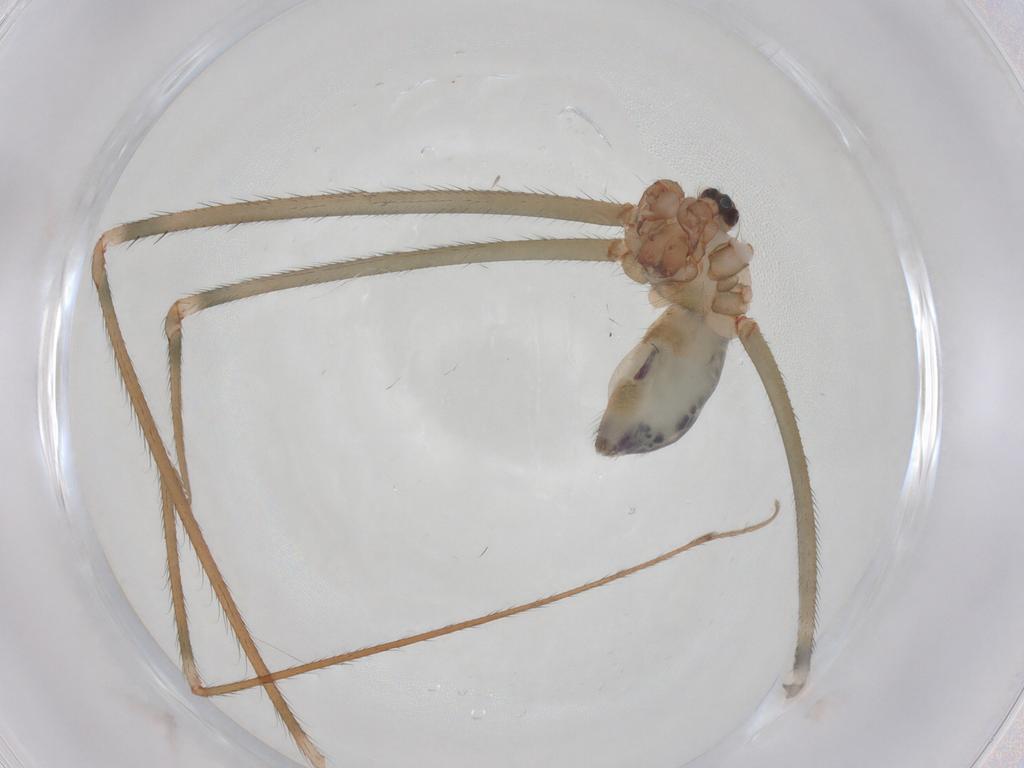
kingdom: Animalia
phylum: Arthropoda
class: Arachnida
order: Araneae
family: Pholcidae
